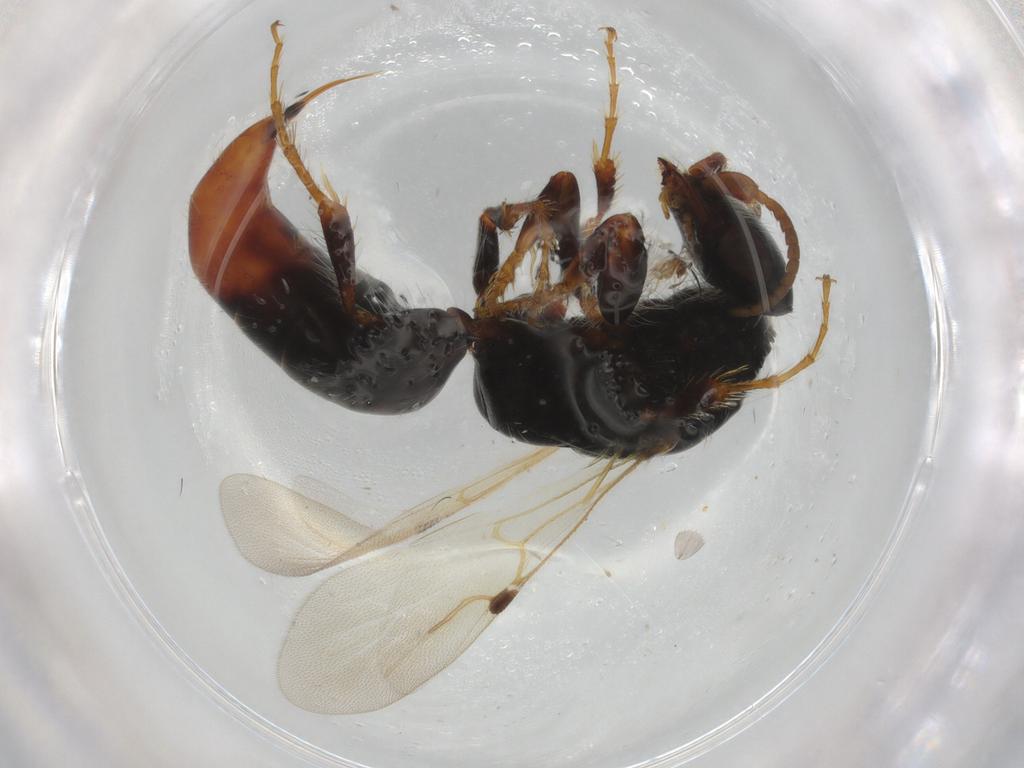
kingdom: Animalia
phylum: Arthropoda
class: Insecta
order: Hymenoptera
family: Bethylidae
